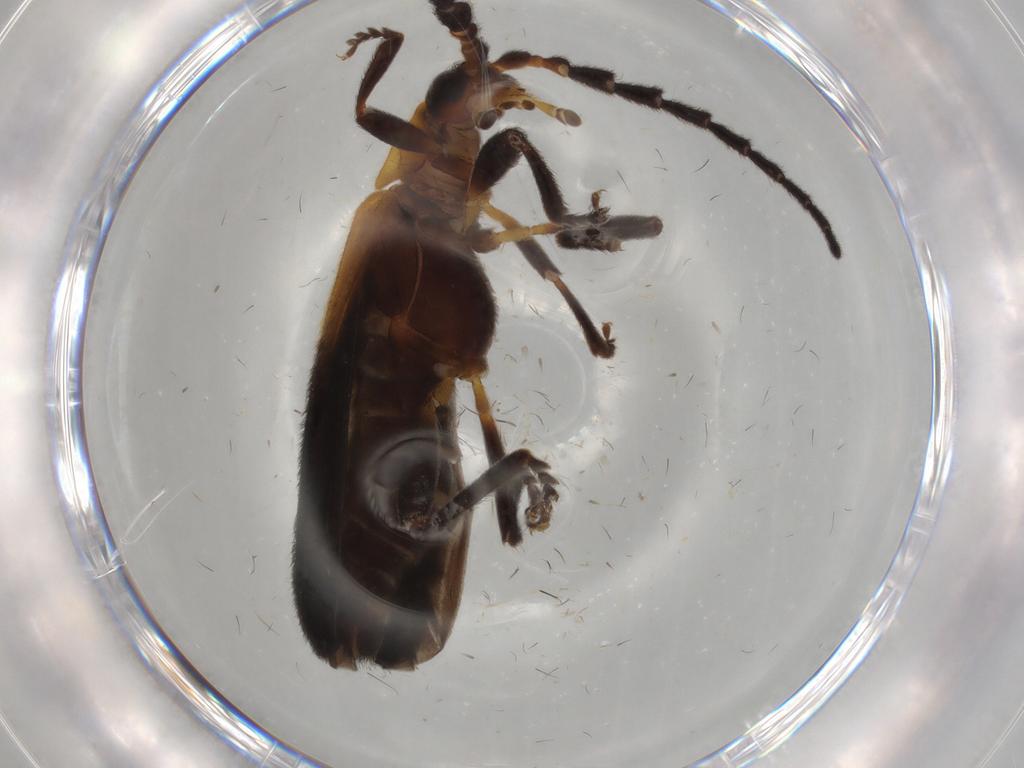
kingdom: Animalia
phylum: Arthropoda
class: Insecta
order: Coleoptera
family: Lycidae
